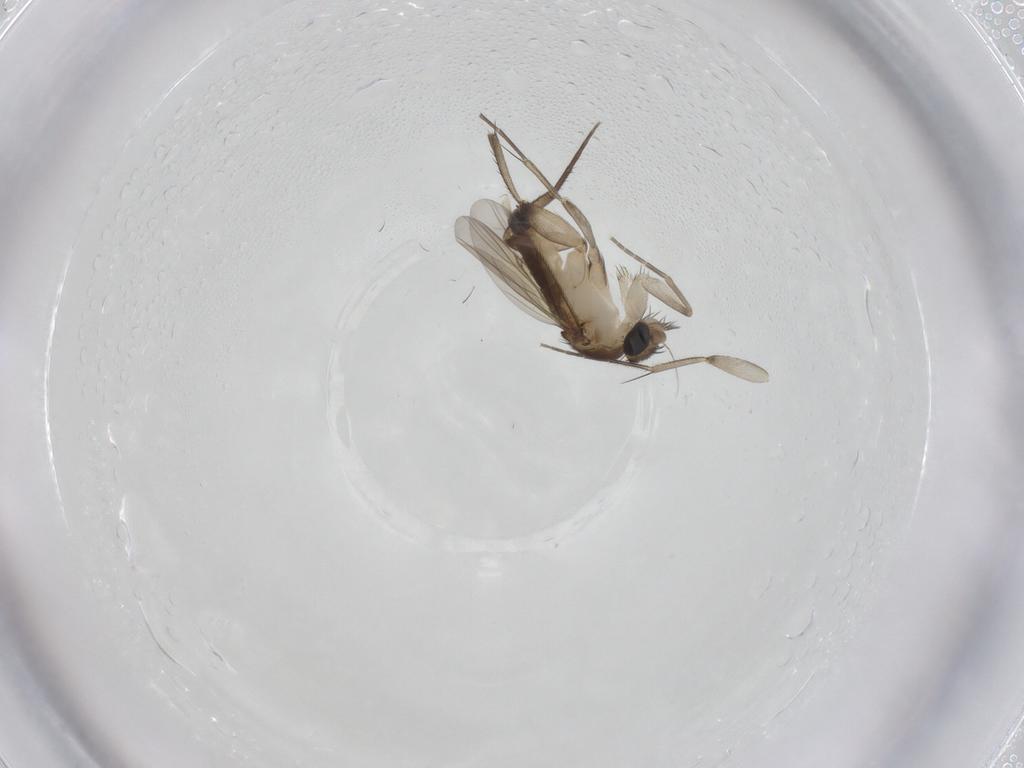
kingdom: Animalia
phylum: Arthropoda
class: Insecta
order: Diptera
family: Phoridae
